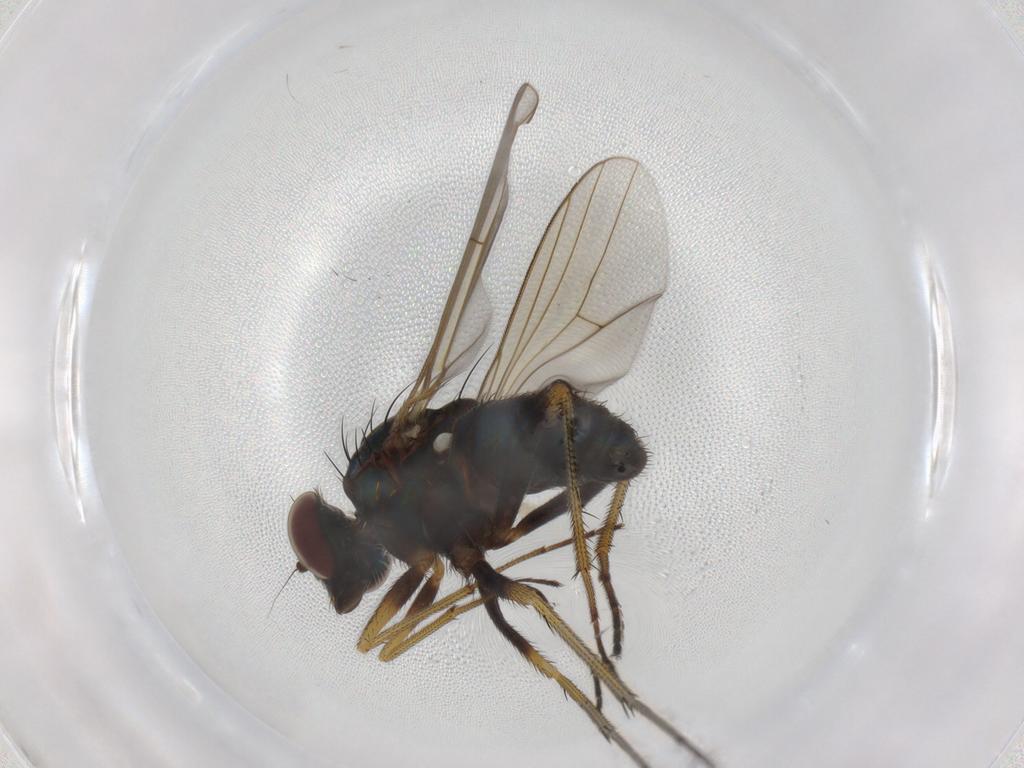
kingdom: Animalia
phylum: Arthropoda
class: Insecta
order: Diptera
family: Dolichopodidae
